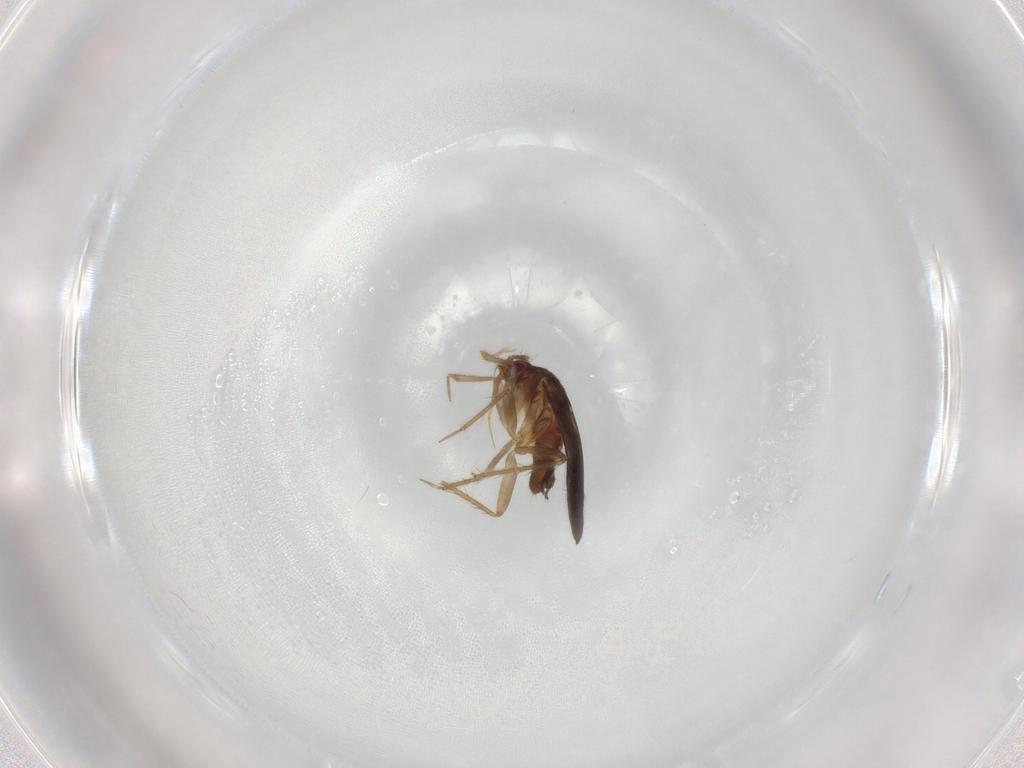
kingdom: Animalia
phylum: Arthropoda
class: Insecta
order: Hemiptera
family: Ceratocombidae
